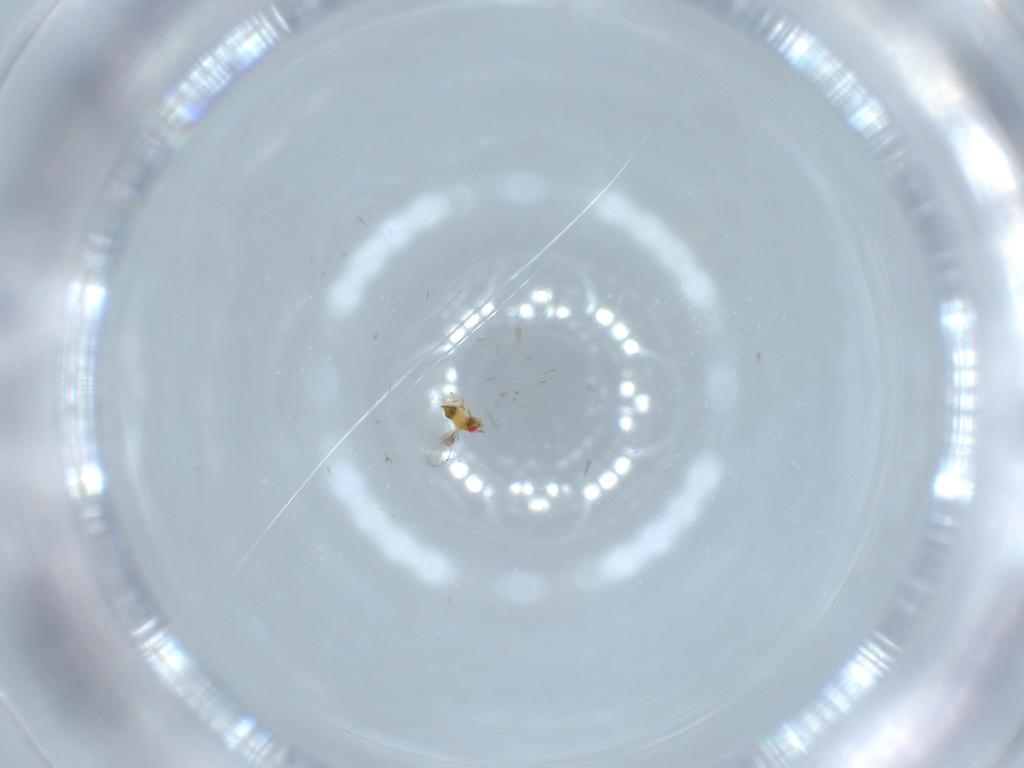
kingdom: Animalia
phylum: Arthropoda
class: Insecta
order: Hymenoptera
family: Trichogrammatidae
